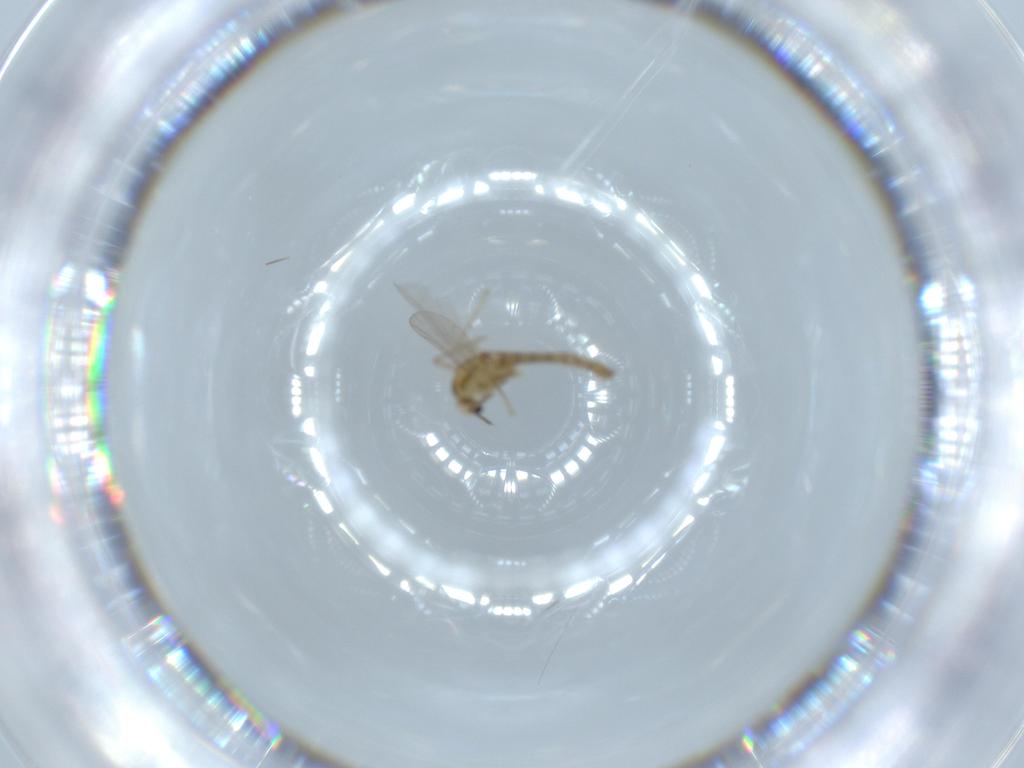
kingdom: Animalia
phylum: Arthropoda
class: Insecta
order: Diptera
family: Chironomidae
